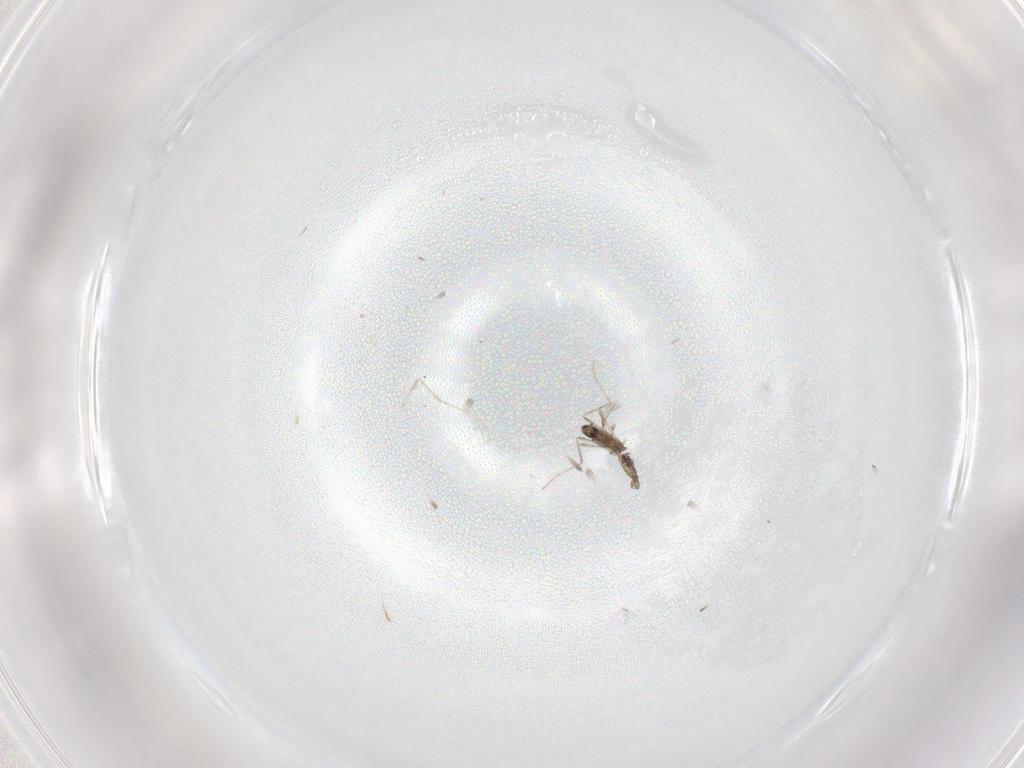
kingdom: Animalia
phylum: Arthropoda
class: Insecta
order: Diptera
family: Cecidomyiidae
